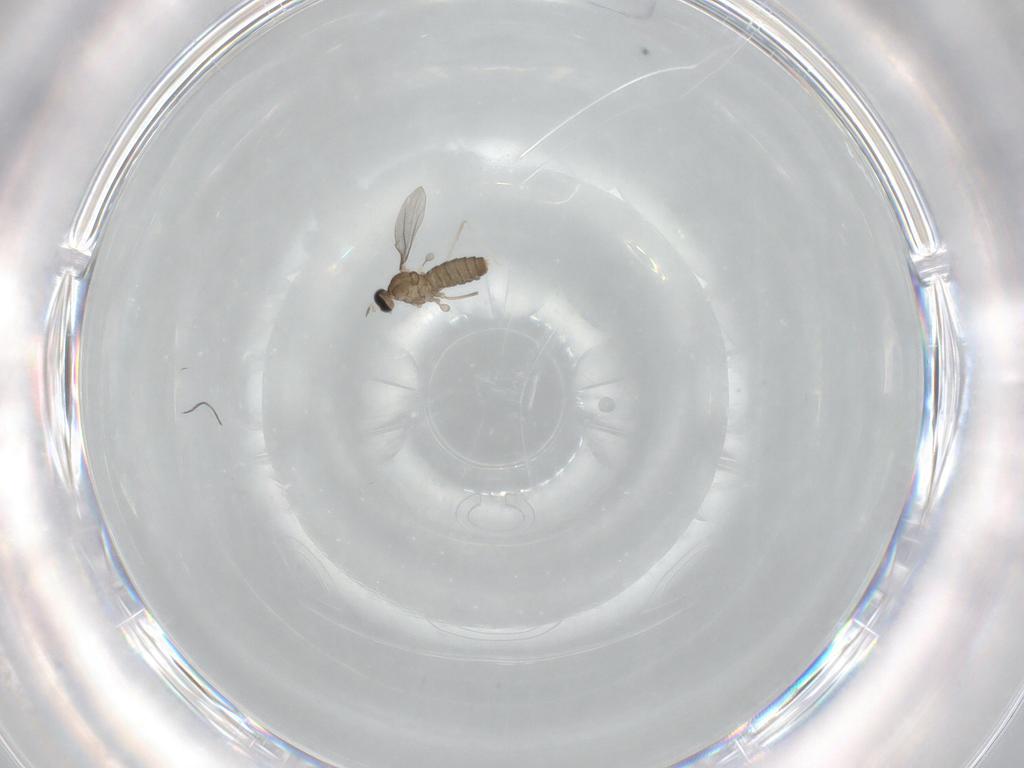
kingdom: Animalia
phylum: Arthropoda
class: Insecta
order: Diptera
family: Cecidomyiidae
